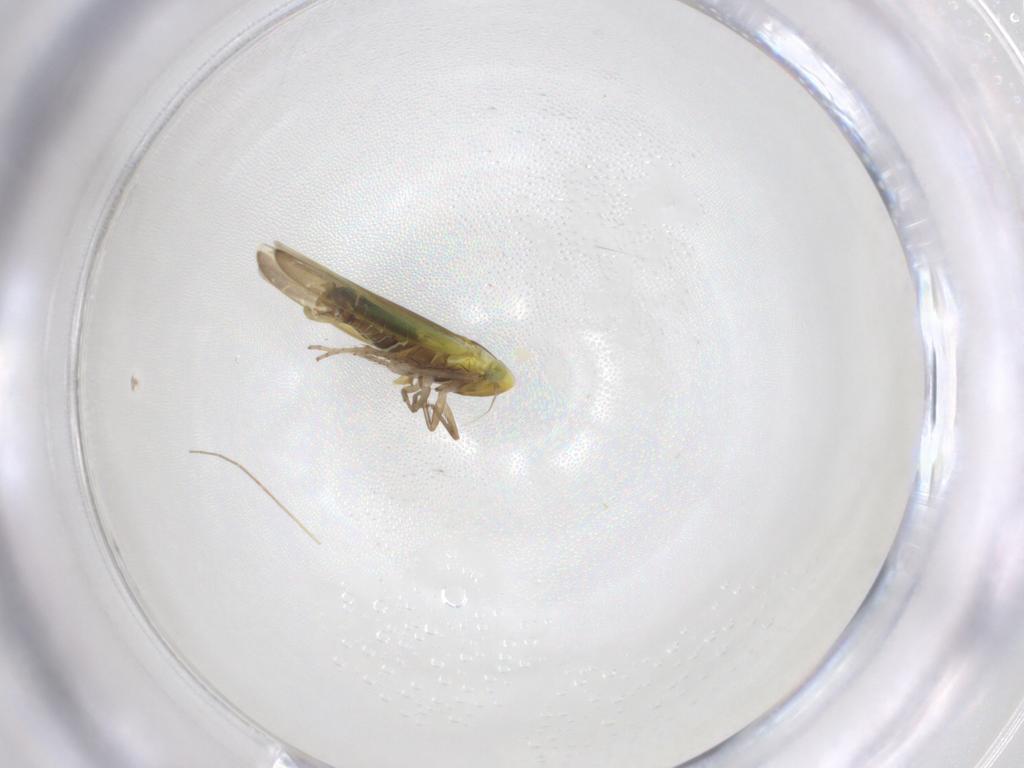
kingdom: Animalia
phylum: Arthropoda
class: Insecta
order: Hemiptera
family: Cicadellidae
